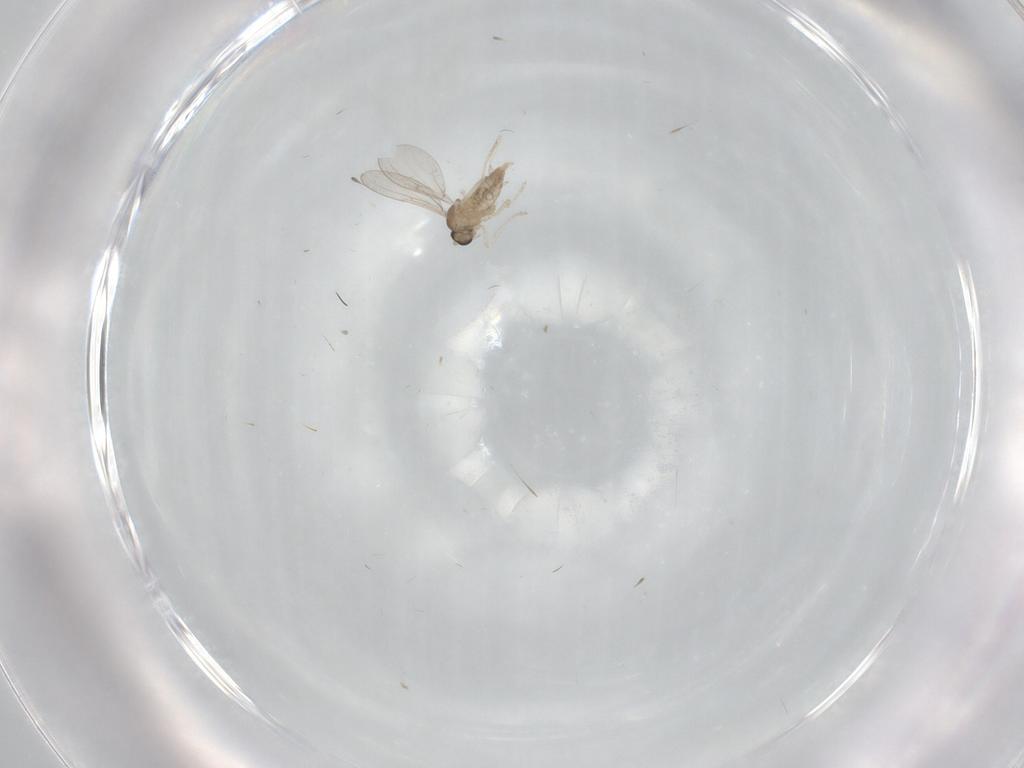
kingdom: Animalia
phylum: Arthropoda
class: Insecta
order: Diptera
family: Cecidomyiidae
